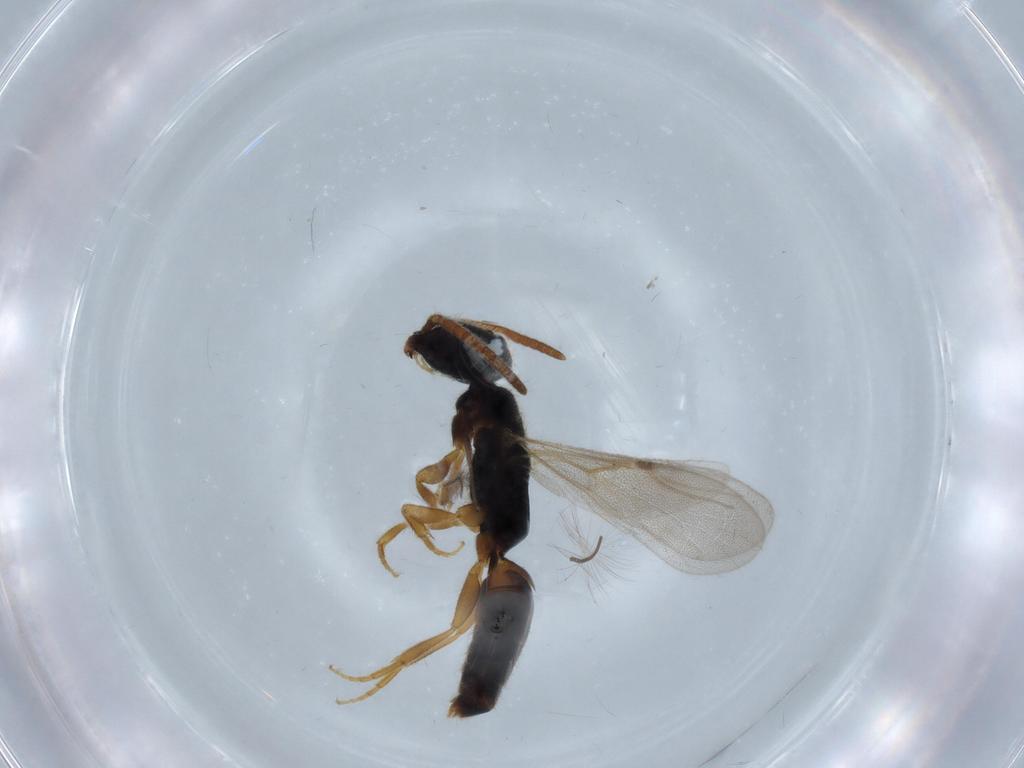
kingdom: Animalia
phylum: Arthropoda
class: Insecta
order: Hymenoptera
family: Bethylidae
